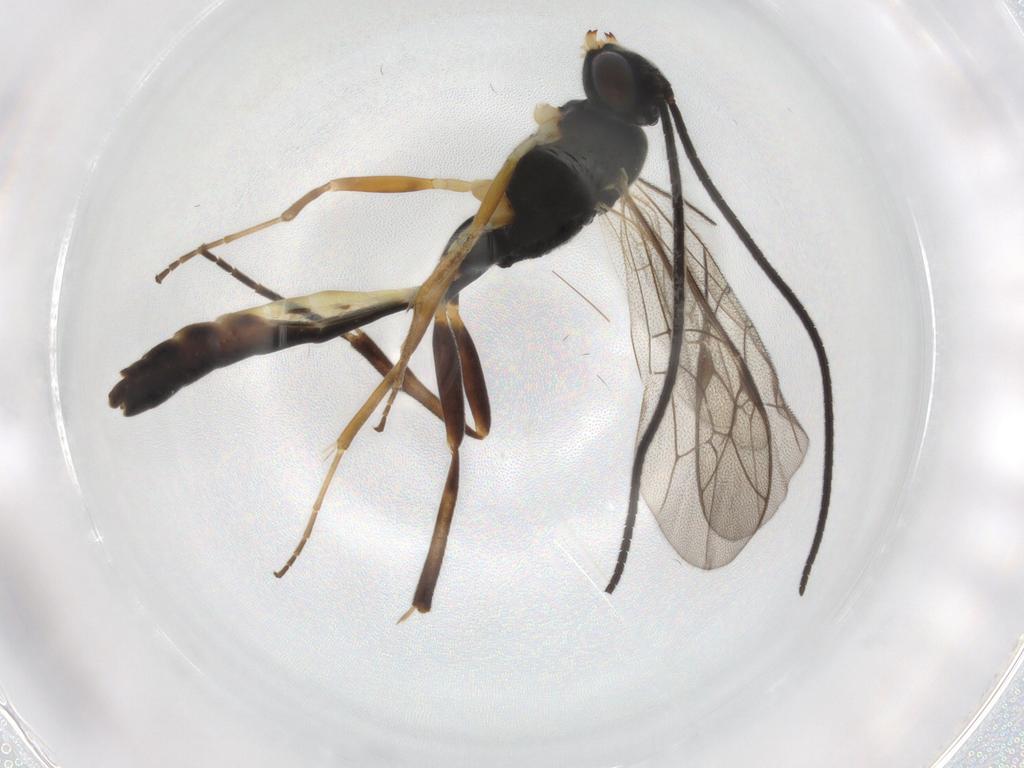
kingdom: Animalia
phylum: Arthropoda
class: Insecta
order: Hymenoptera
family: Ichneumonidae
